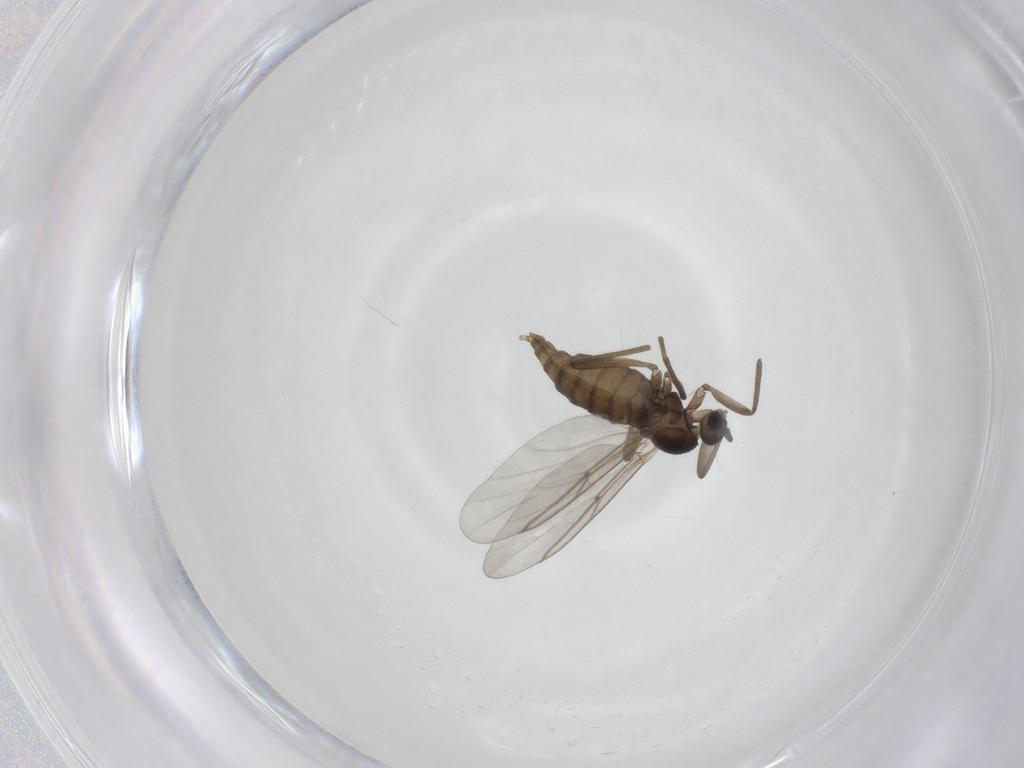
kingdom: Animalia
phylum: Arthropoda
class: Insecta
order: Diptera
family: Cecidomyiidae
